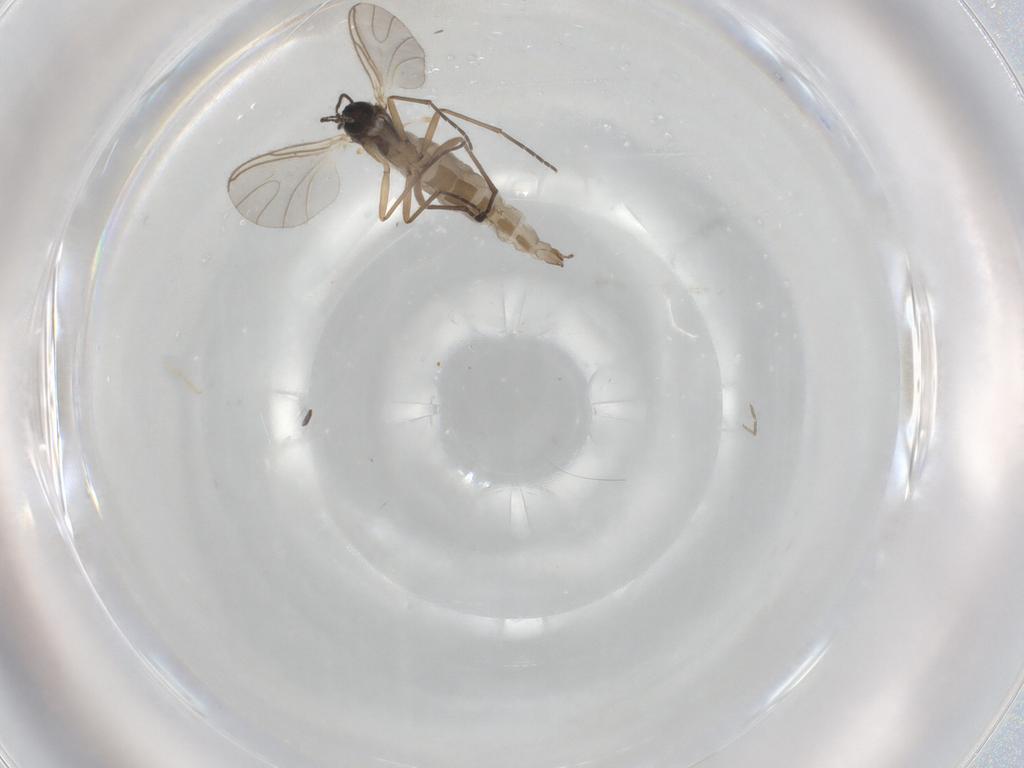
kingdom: Animalia
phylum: Arthropoda
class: Insecta
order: Diptera
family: Sciaridae
